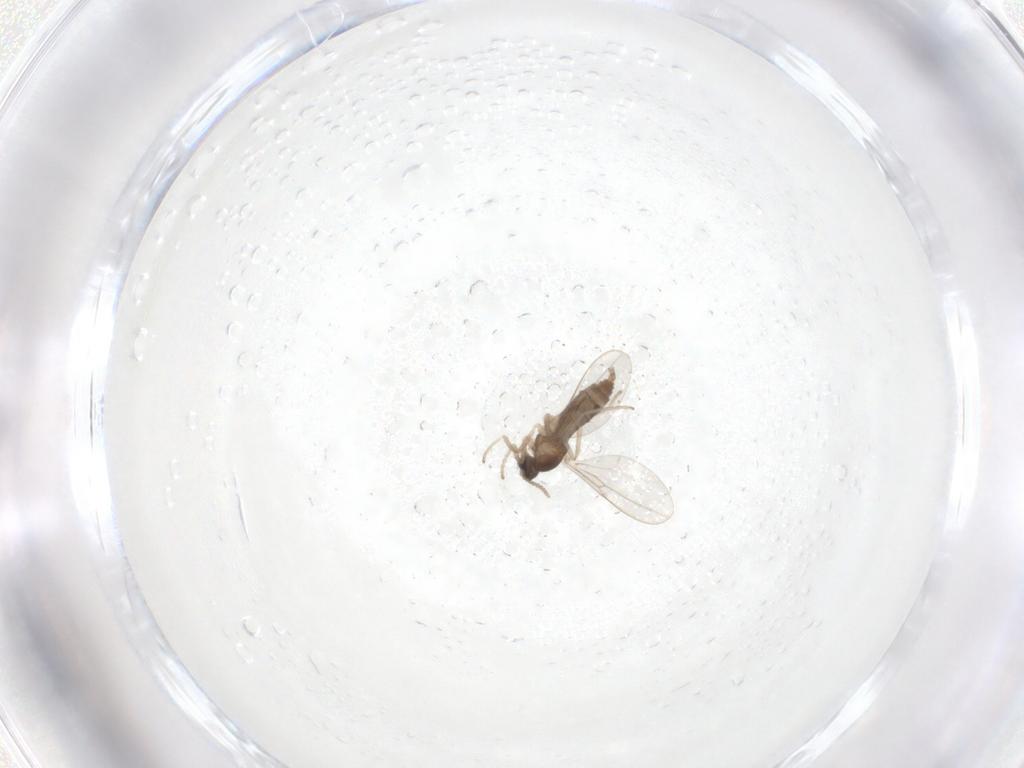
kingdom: Animalia
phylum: Arthropoda
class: Insecta
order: Diptera
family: Cecidomyiidae
